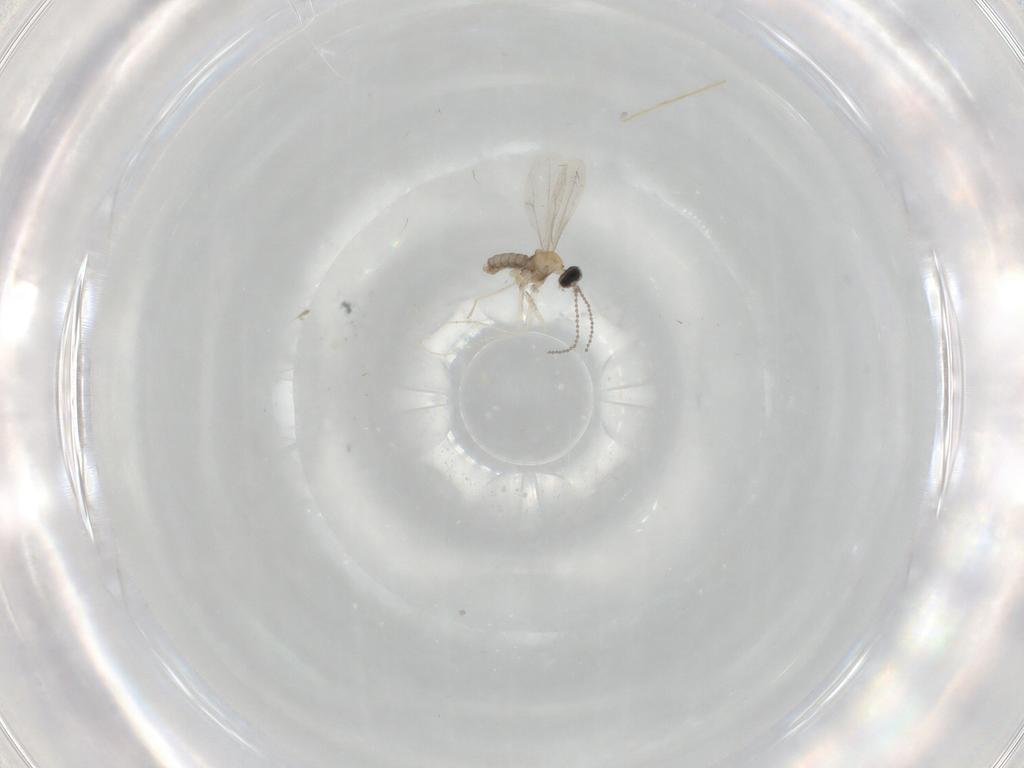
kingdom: Animalia
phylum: Arthropoda
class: Insecta
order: Diptera
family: Cecidomyiidae
